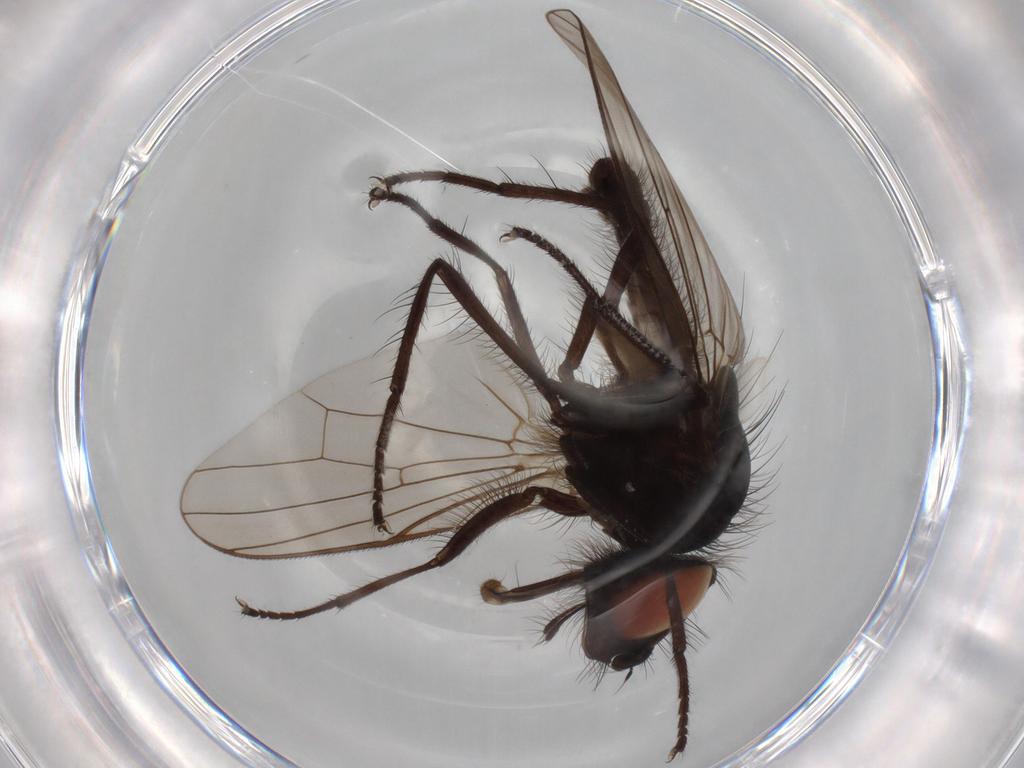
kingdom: Animalia
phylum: Arthropoda
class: Insecta
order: Diptera
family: Anthomyiidae
